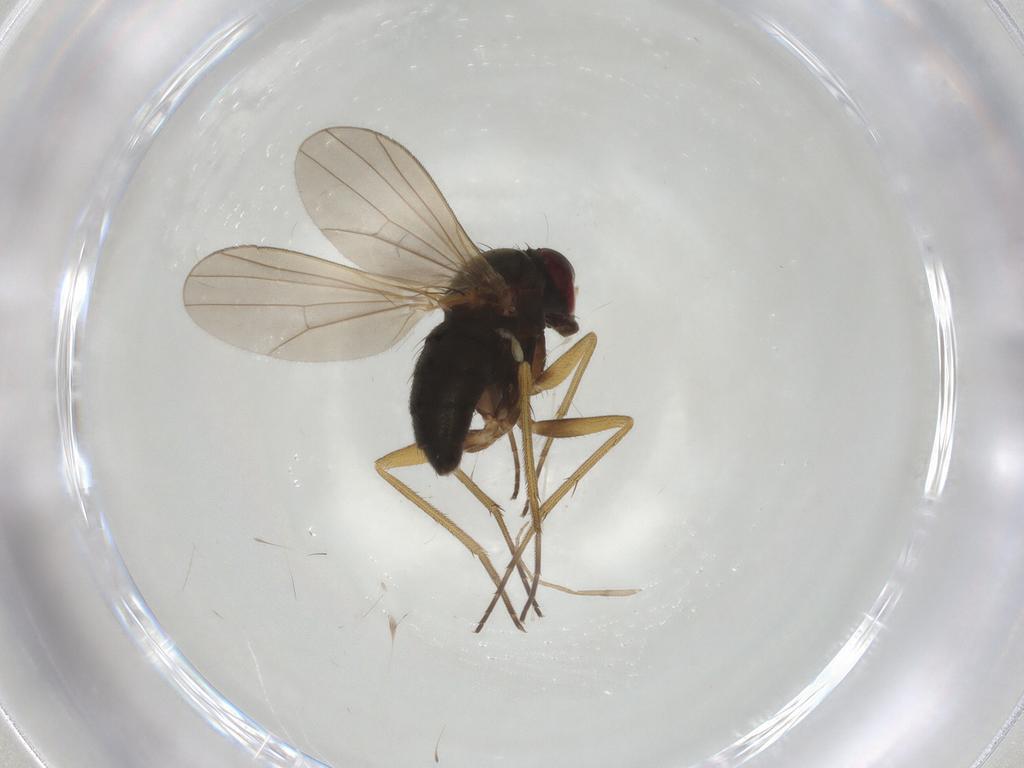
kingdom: Animalia
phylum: Arthropoda
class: Insecta
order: Diptera
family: Dolichopodidae
